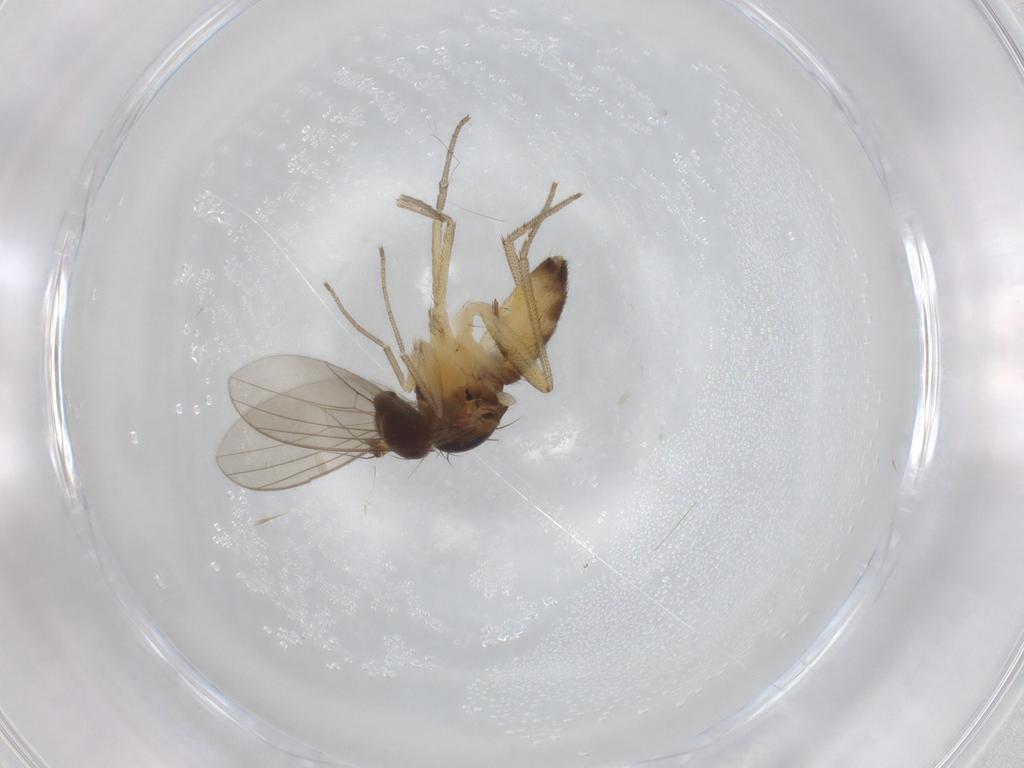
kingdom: Animalia
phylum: Arthropoda
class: Insecta
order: Diptera
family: Dolichopodidae
